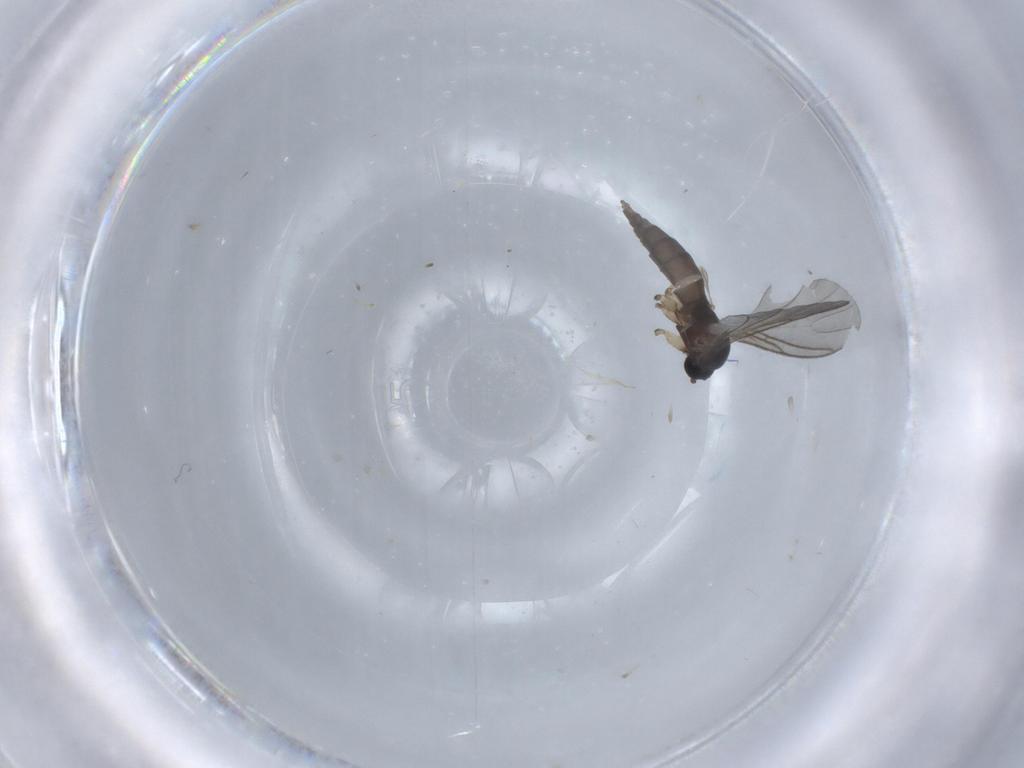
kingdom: Animalia
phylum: Arthropoda
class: Insecta
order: Diptera
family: Sciaridae
